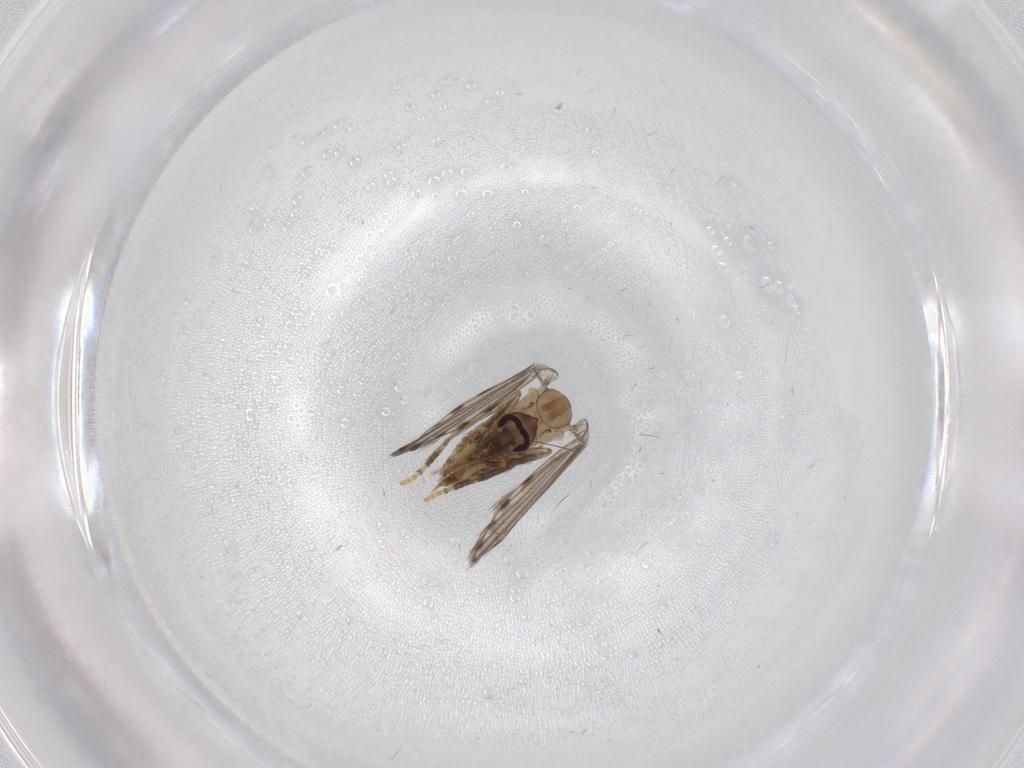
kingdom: Animalia
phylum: Arthropoda
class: Insecta
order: Diptera
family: Psychodidae
